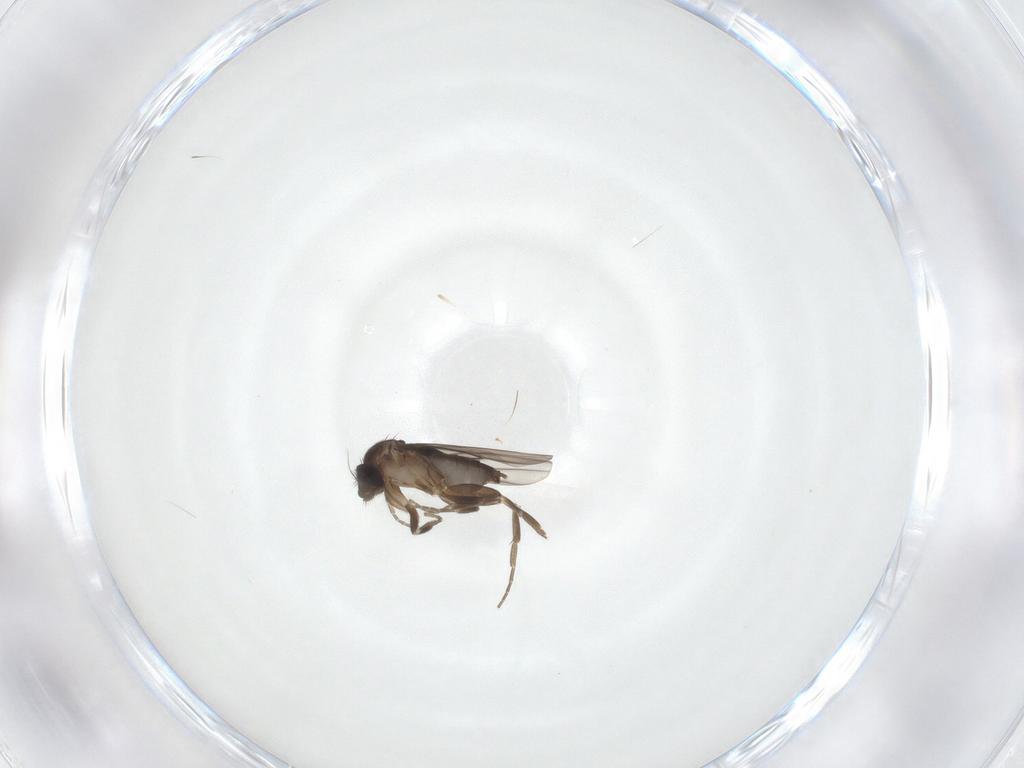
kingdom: Animalia
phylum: Arthropoda
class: Insecta
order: Diptera
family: Phoridae
